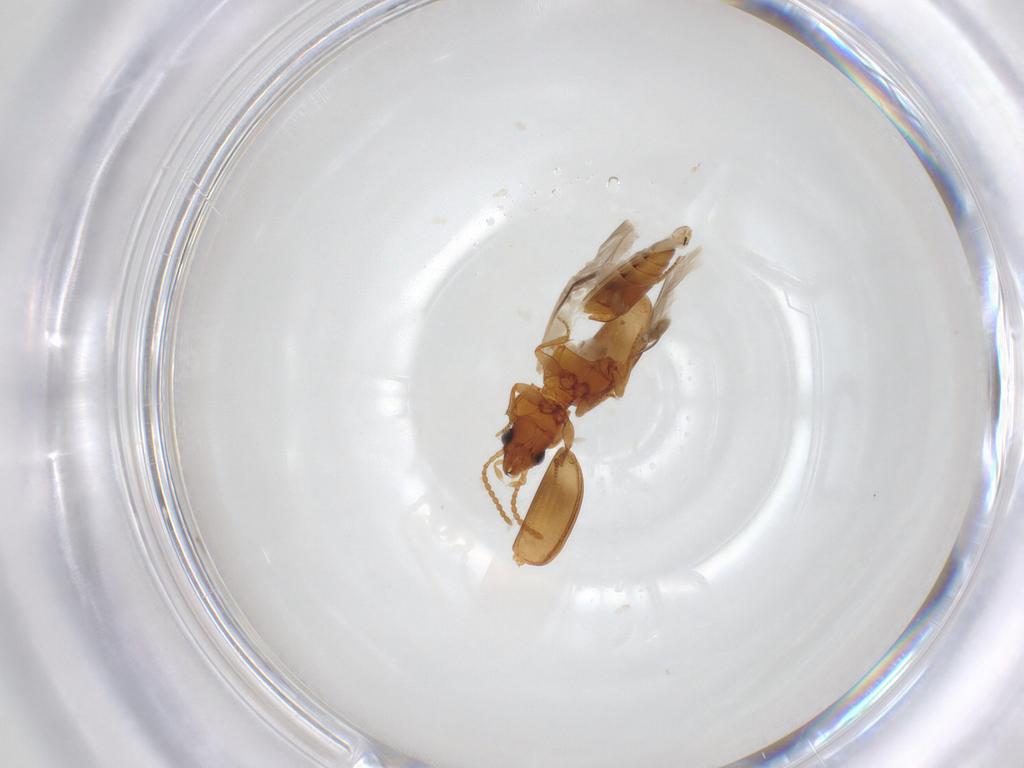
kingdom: Animalia
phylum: Arthropoda
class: Insecta
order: Coleoptera
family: Carabidae
